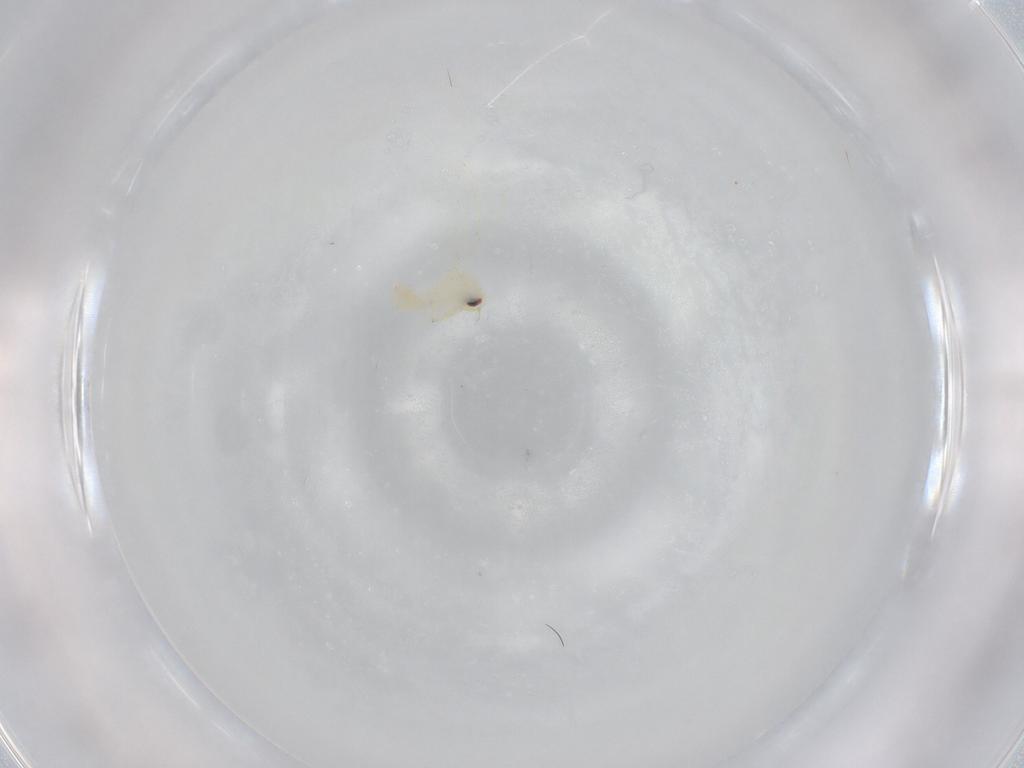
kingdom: Animalia
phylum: Arthropoda
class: Insecta
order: Hemiptera
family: Aleyrodidae
